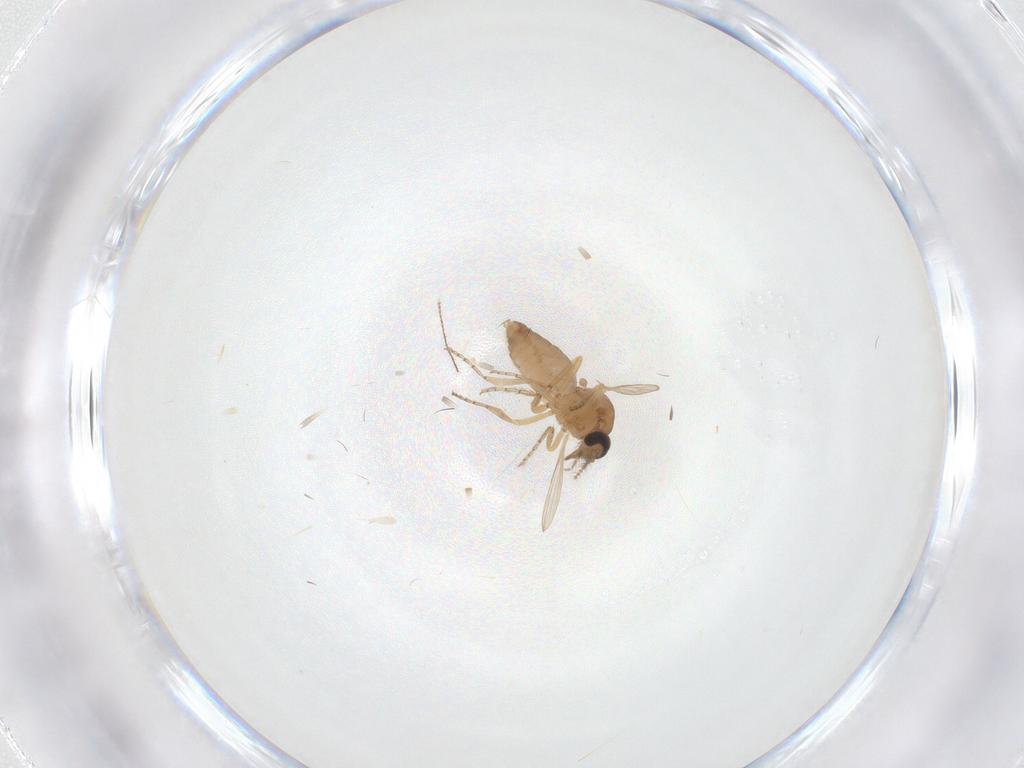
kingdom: Animalia
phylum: Arthropoda
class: Insecta
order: Diptera
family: Ceratopogonidae
